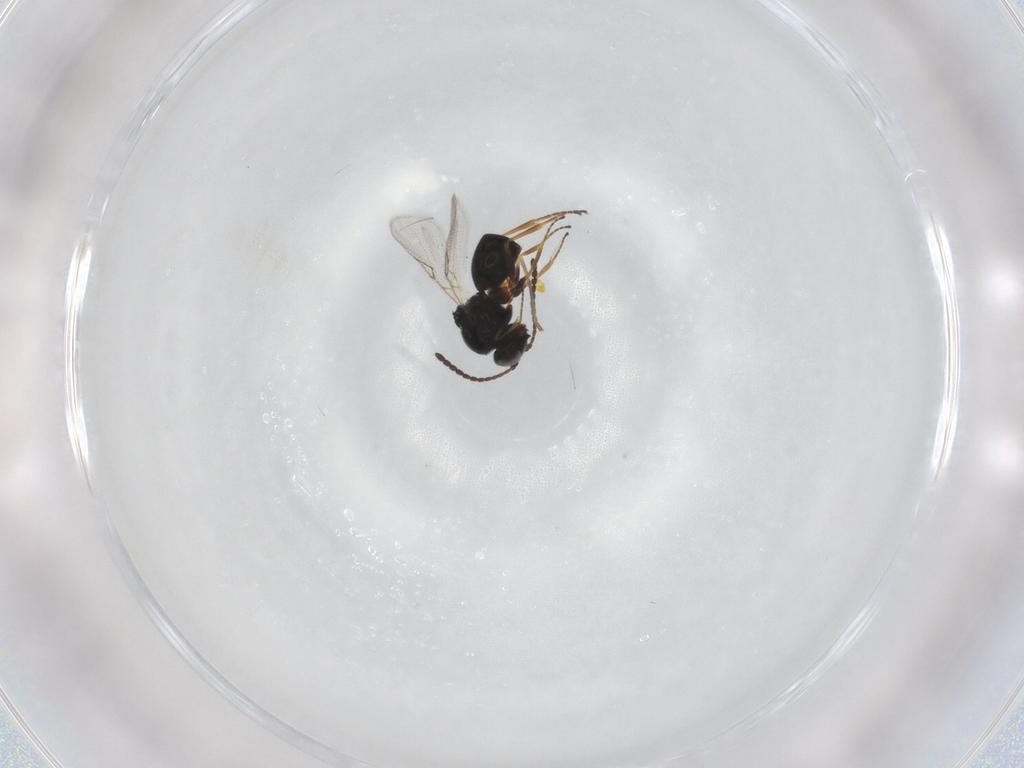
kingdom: Animalia
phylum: Arthropoda
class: Insecta
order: Hymenoptera
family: Figitidae
